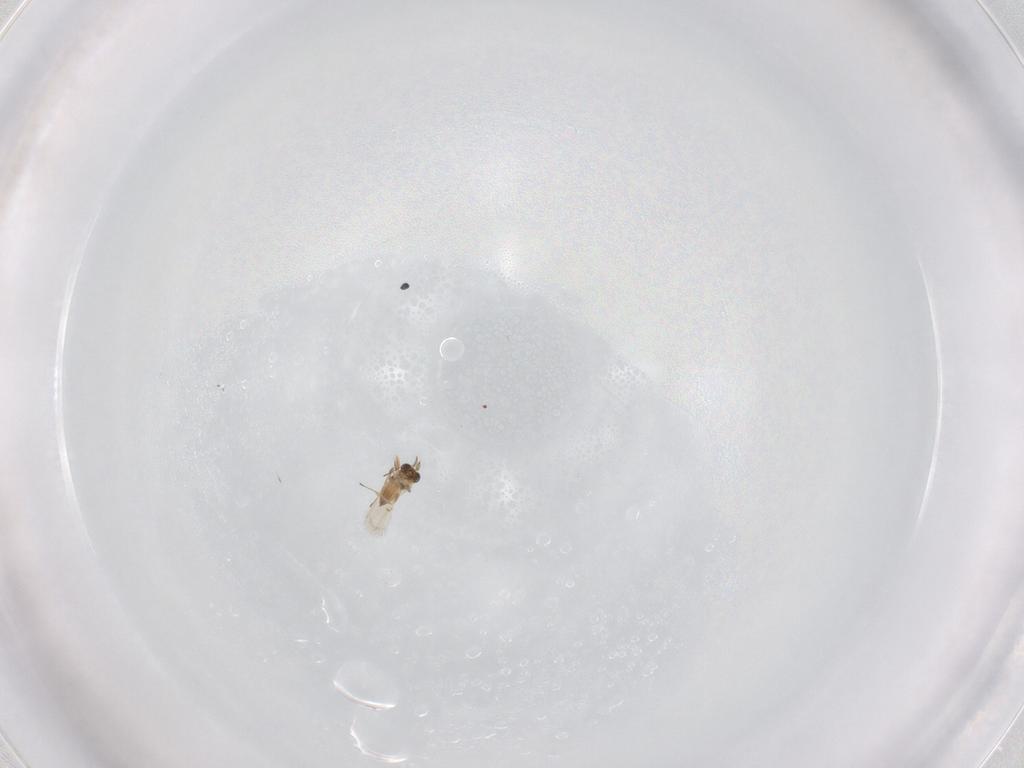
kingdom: Animalia
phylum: Arthropoda
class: Insecta
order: Hymenoptera
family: Trichogrammatidae
